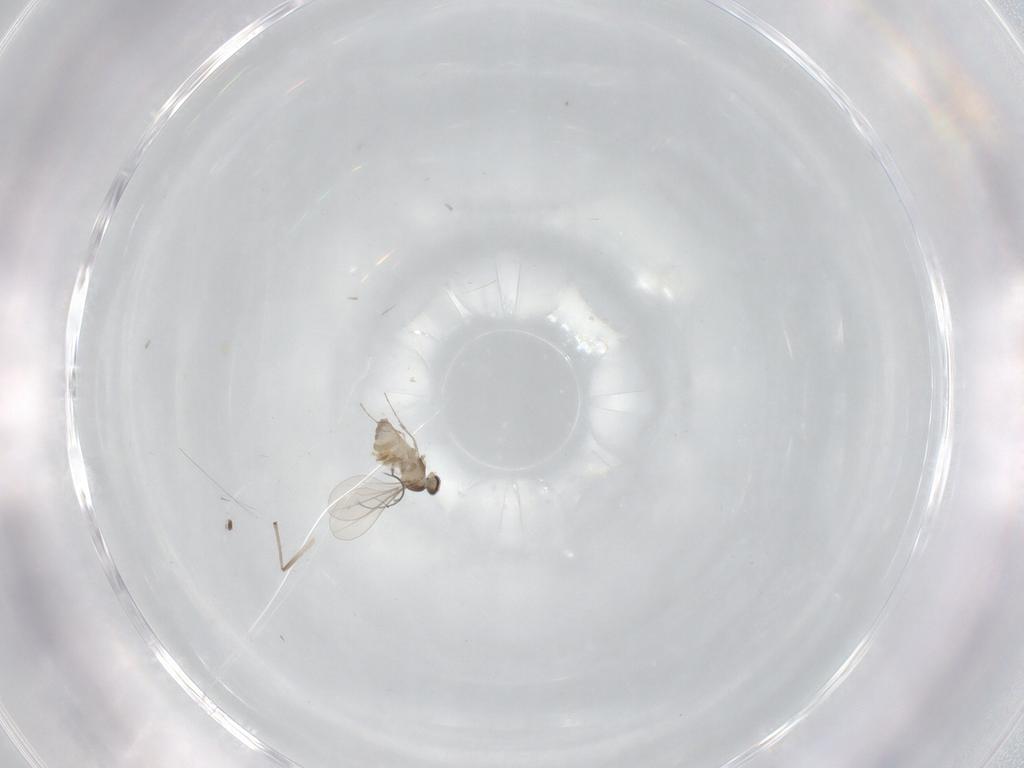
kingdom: Animalia
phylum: Arthropoda
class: Insecta
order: Diptera
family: Cecidomyiidae
